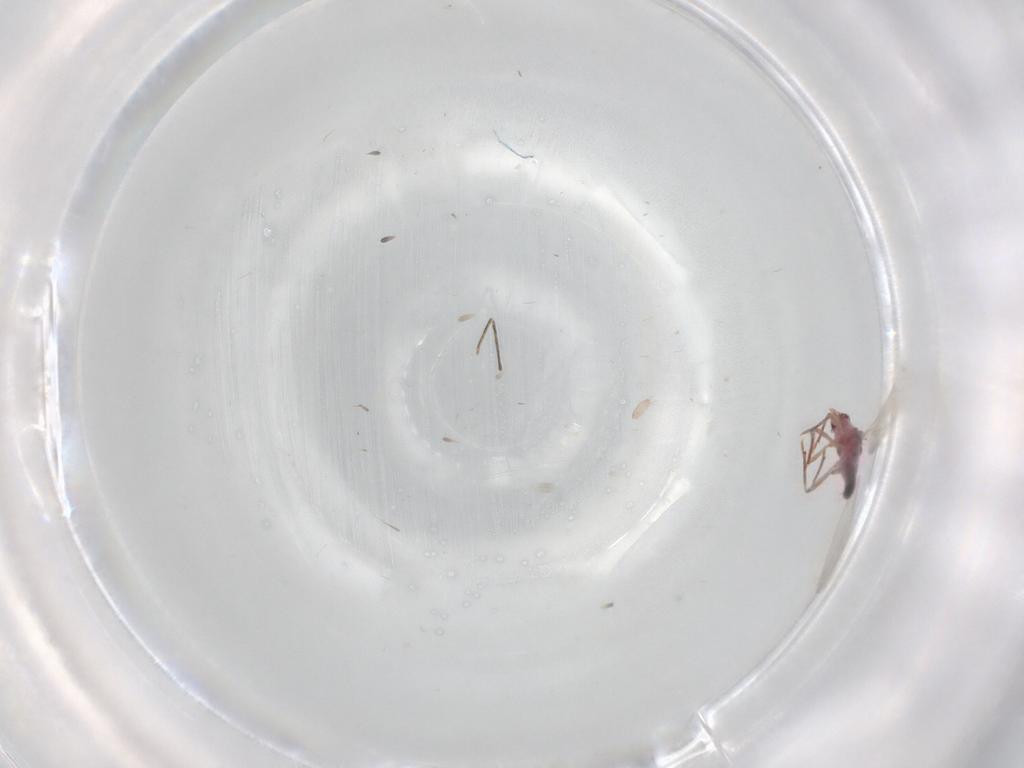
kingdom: Animalia
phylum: Arthropoda
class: Insecta
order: Hemiptera
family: Cicadellidae
